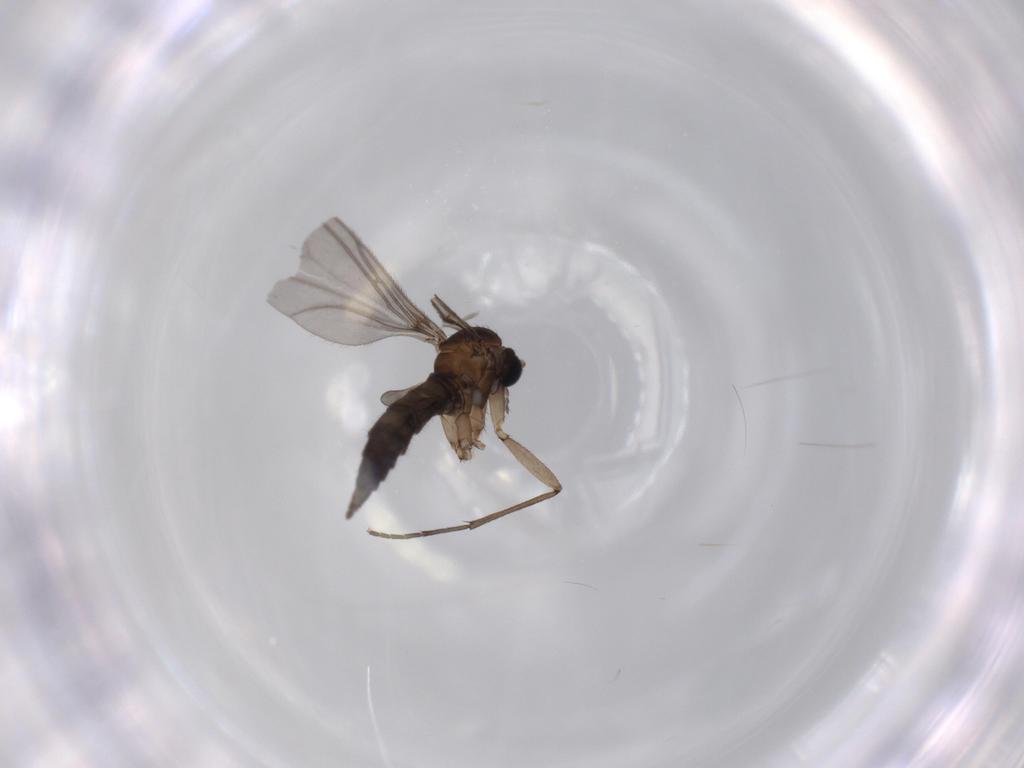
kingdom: Animalia
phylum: Arthropoda
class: Insecta
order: Diptera
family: Sciaridae
